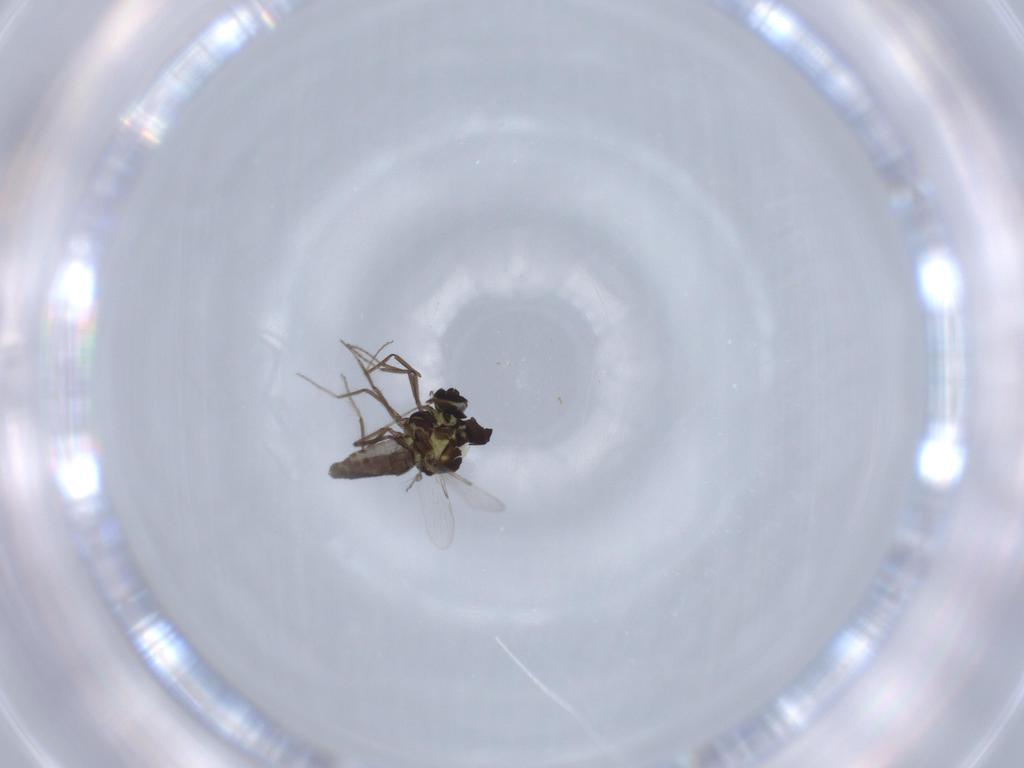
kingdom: Animalia
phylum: Arthropoda
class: Insecta
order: Diptera
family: Ceratopogonidae
